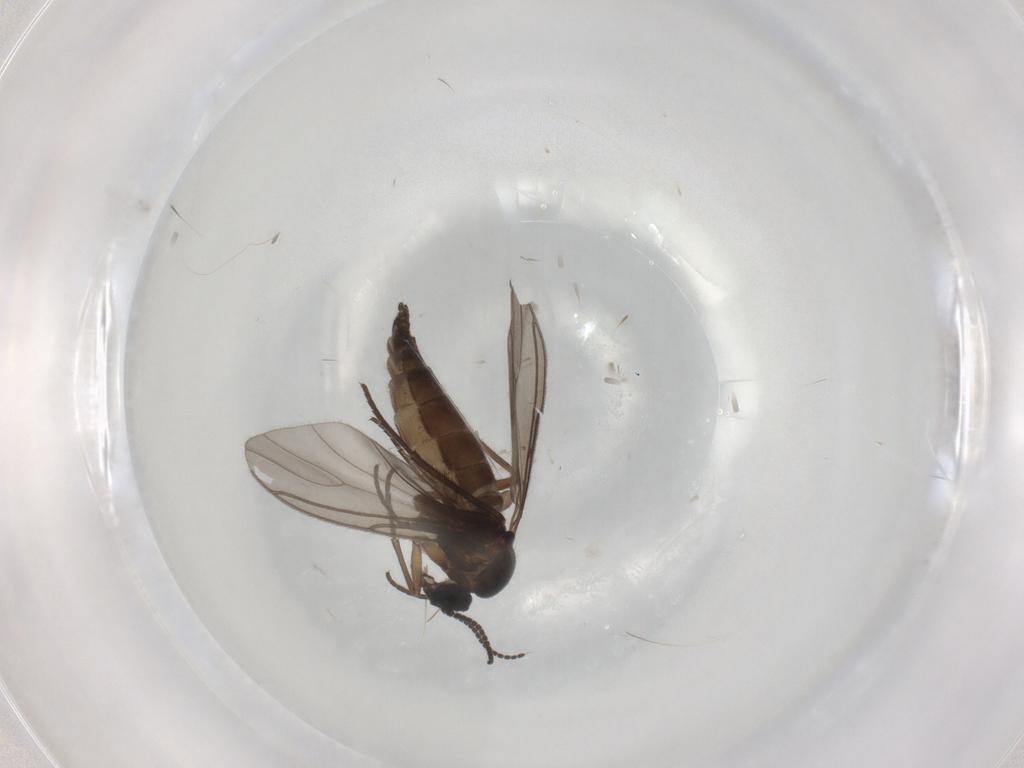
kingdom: Animalia
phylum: Arthropoda
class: Insecta
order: Diptera
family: Sciaridae
